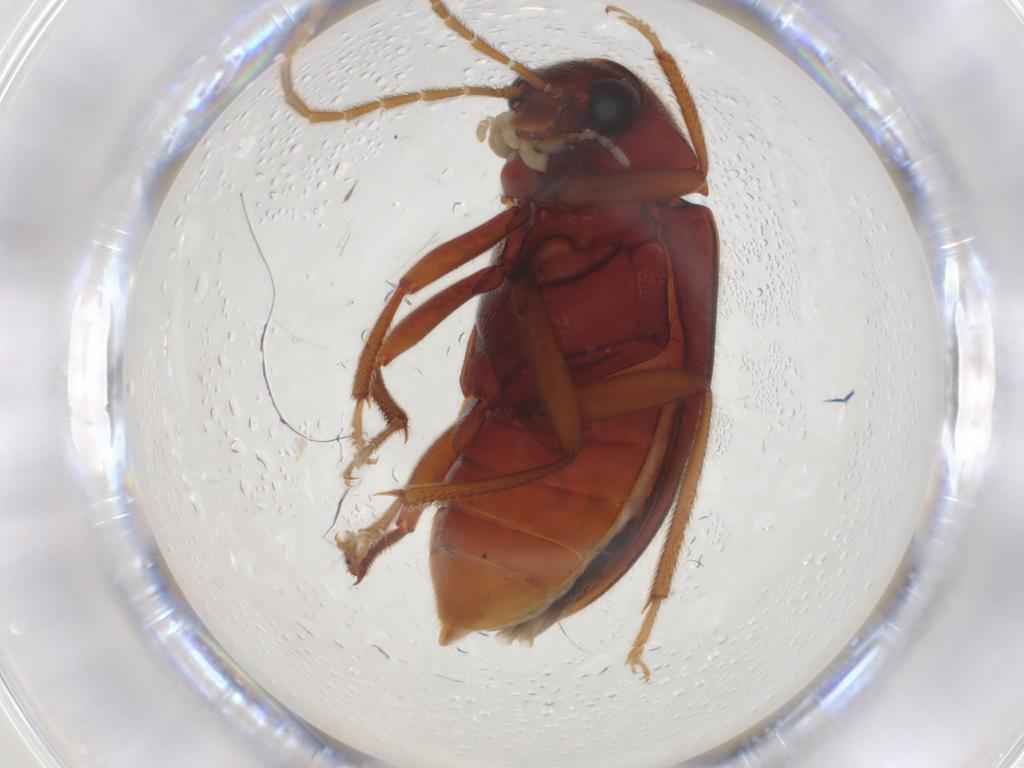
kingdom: Animalia
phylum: Arthropoda
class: Insecta
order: Coleoptera
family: Ptilodactylidae
